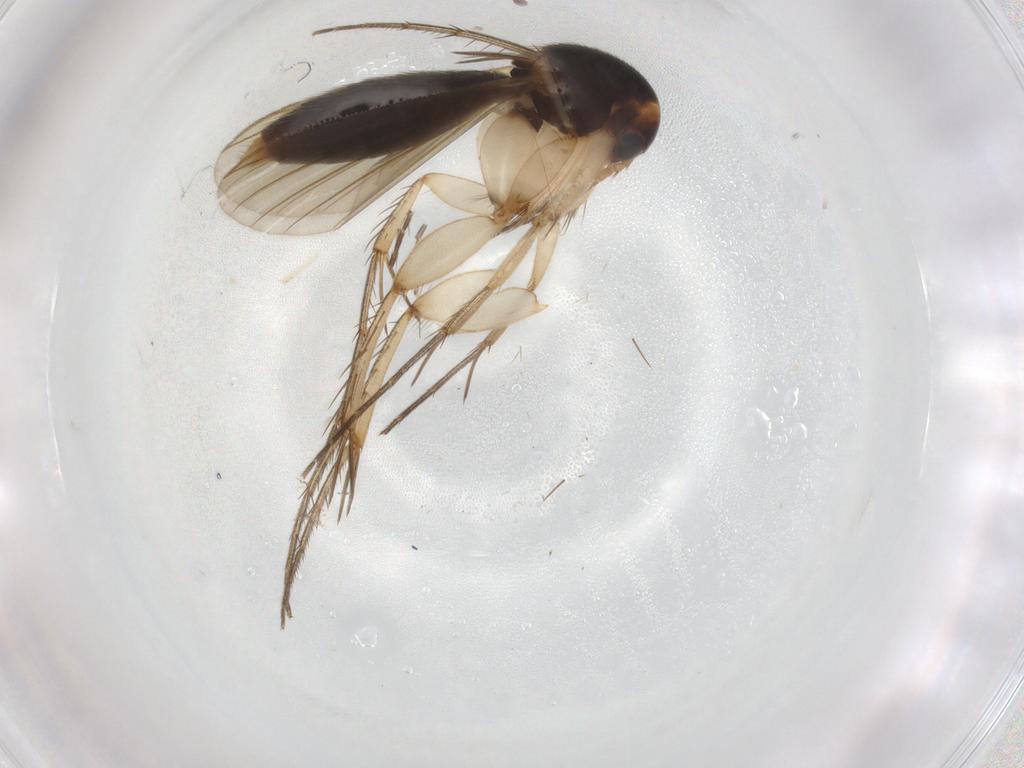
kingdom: Animalia
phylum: Arthropoda
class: Insecta
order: Diptera
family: Mycetophilidae
